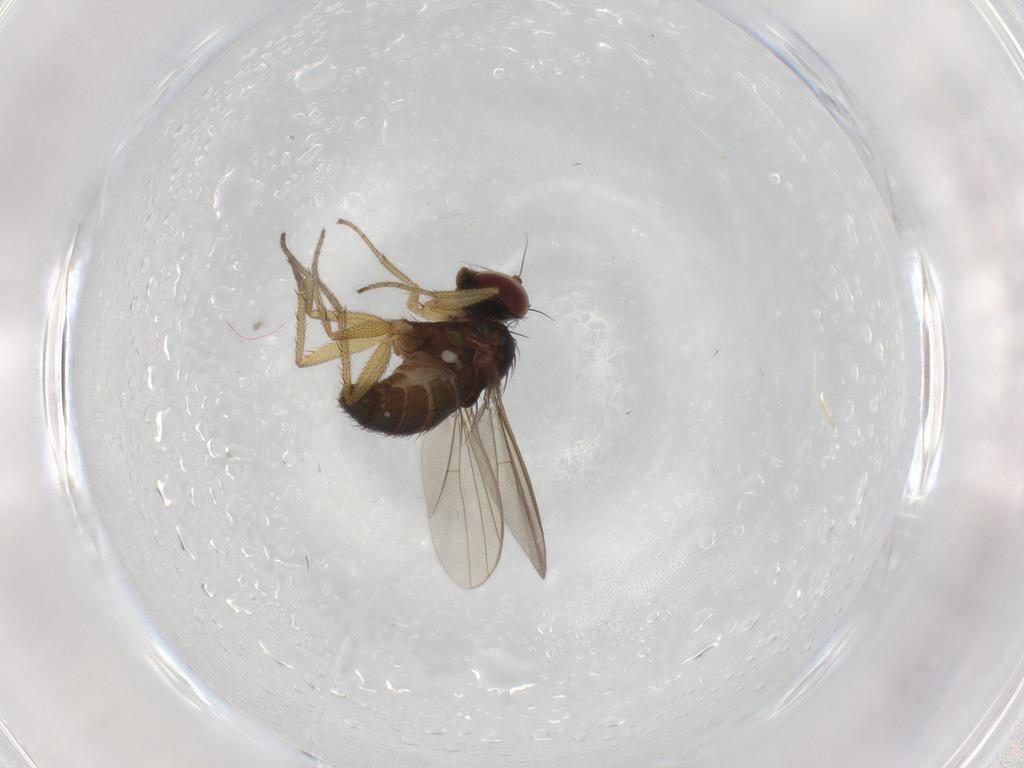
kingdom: Animalia
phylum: Arthropoda
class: Insecta
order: Diptera
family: Dolichopodidae
